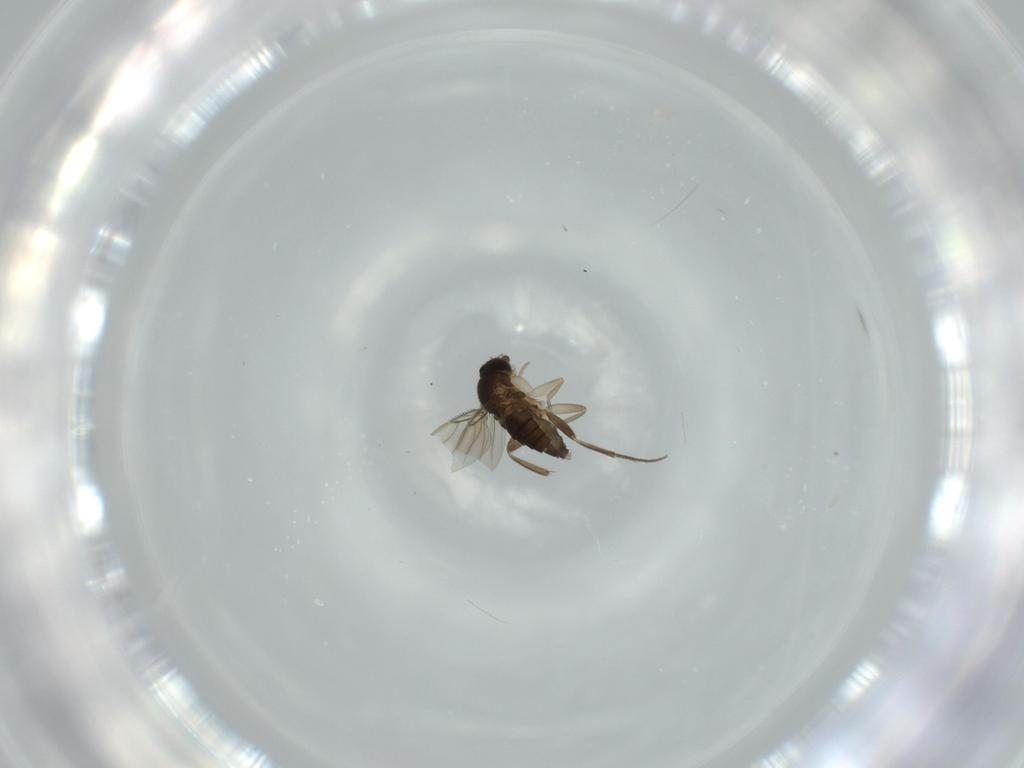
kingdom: Animalia
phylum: Arthropoda
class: Insecta
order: Diptera
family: Phoridae
